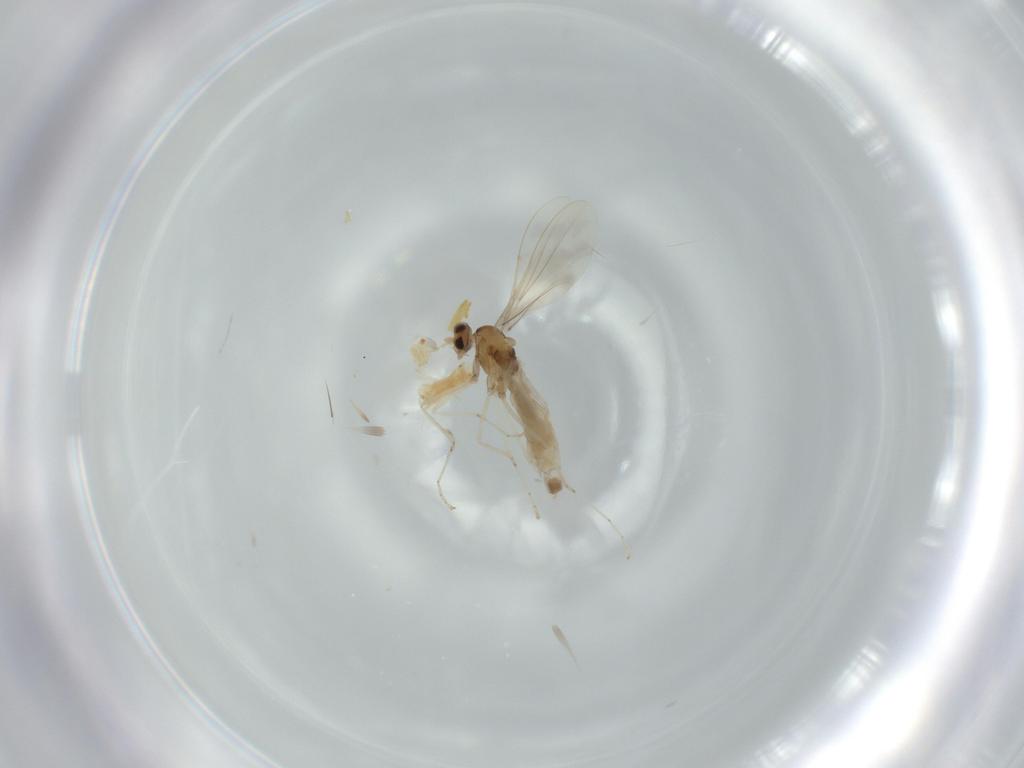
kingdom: Animalia
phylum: Arthropoda
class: Insecta
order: Diptera
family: Cecidomyiidae
